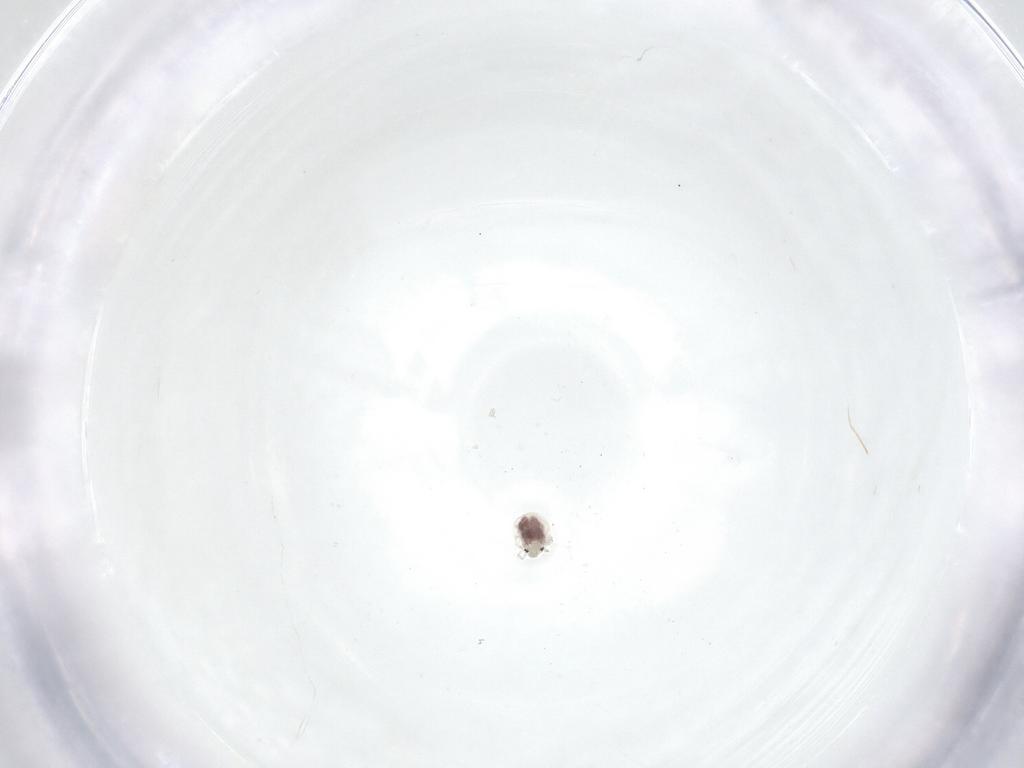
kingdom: Animalia
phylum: Arthropoda
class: Arachnida
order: Trombidiformes
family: Pionidae
